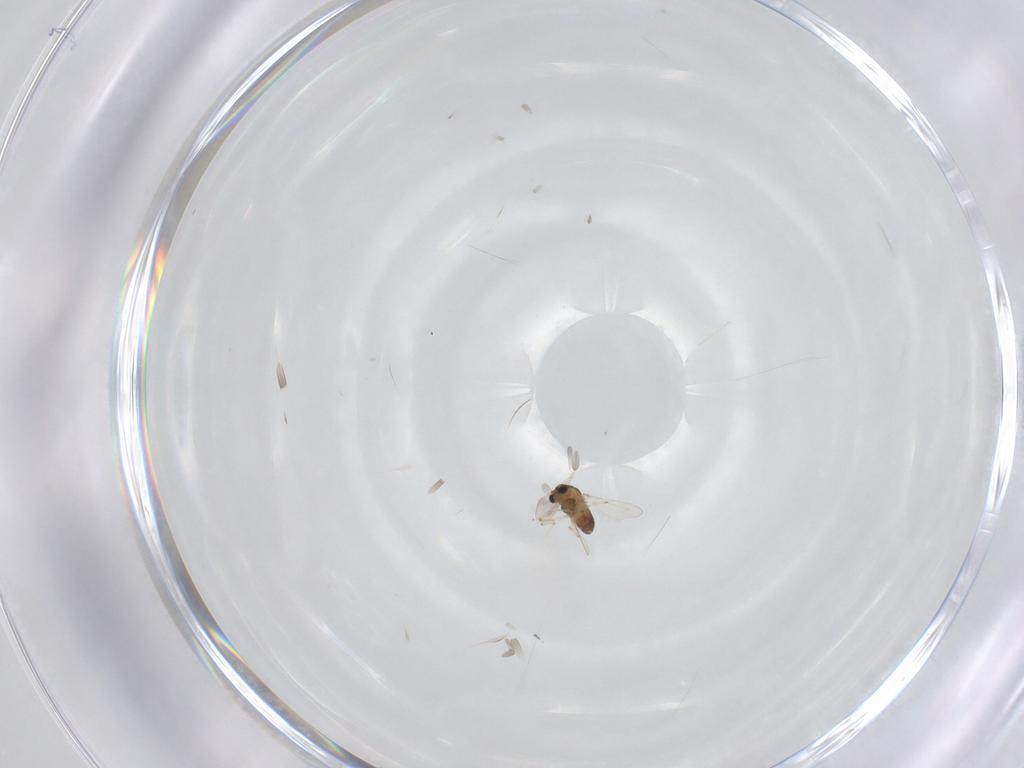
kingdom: Animalia
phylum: Arthropoda
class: Insecta
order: Diptera
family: Chironomidae
